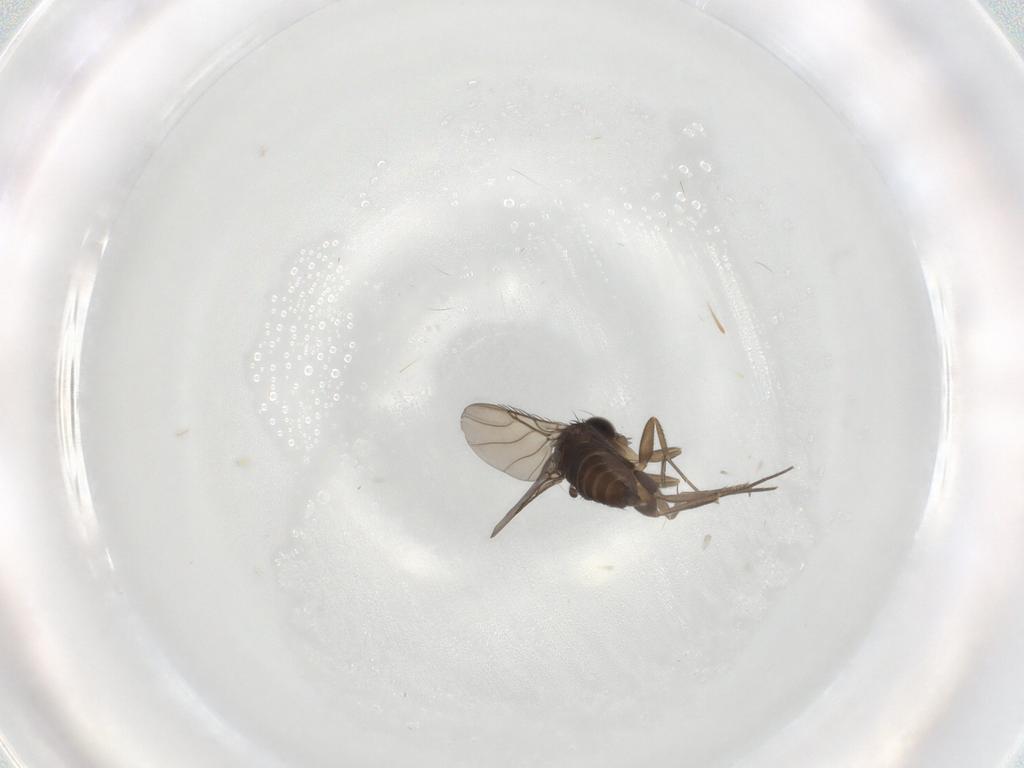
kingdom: Animalia
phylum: Arthropoda
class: Insecta
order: Diptera
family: Phoridae
